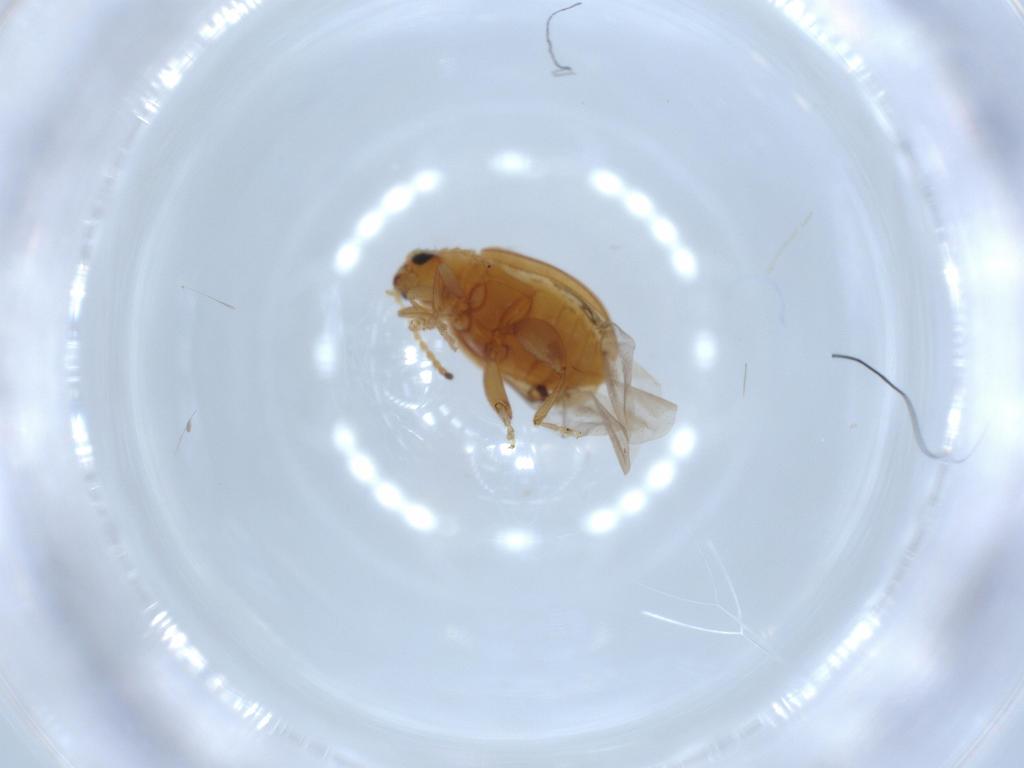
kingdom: Animalia
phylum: Arthropoda
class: Insecta
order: Coleoptera
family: Chrysomelidae
